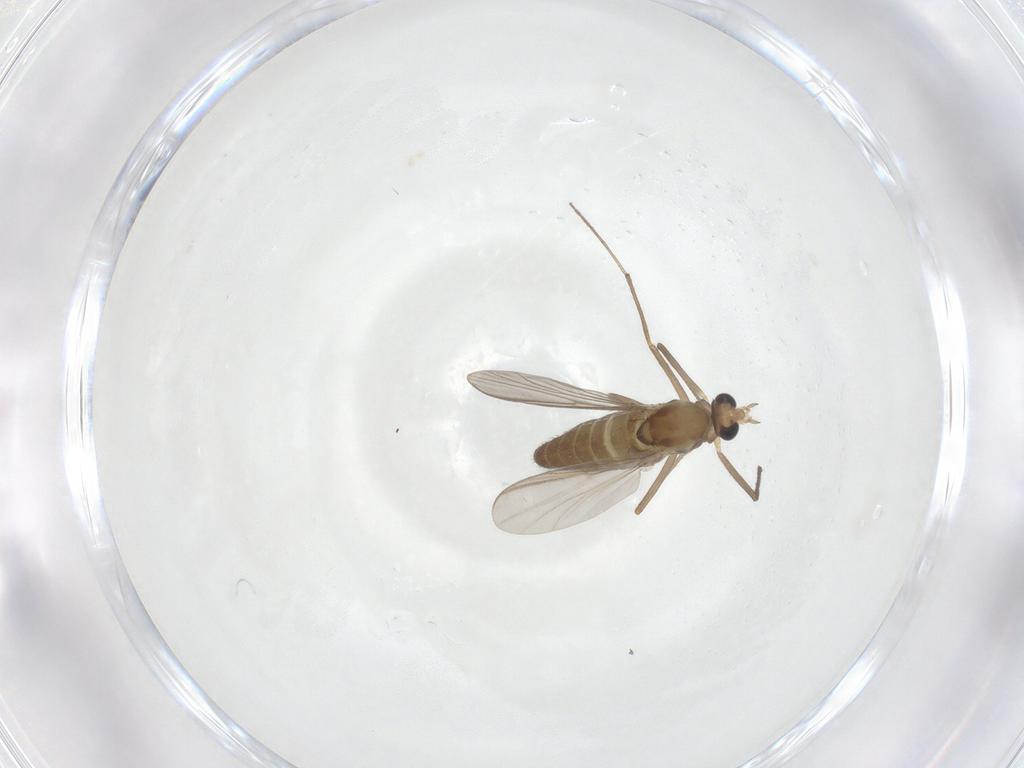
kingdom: Animalia
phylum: Arthropoda
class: Insecta
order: Diptera
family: Chironomidae
